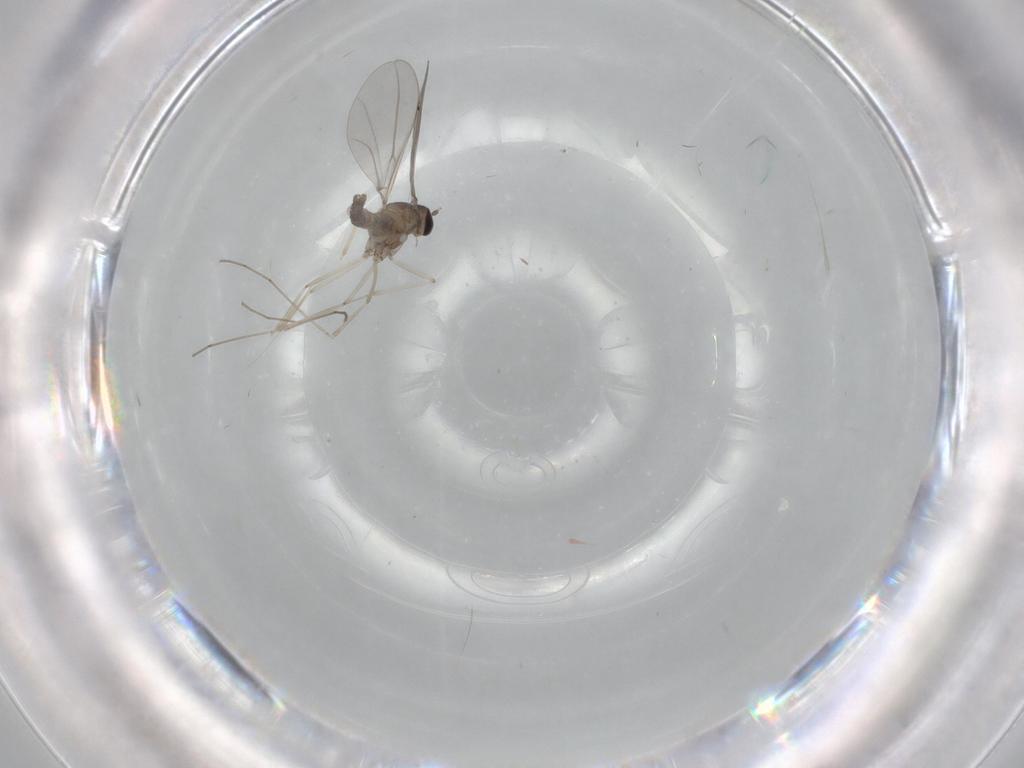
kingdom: Animalia
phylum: Arthropoda
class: Insecta
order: Diptera
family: Cecidomyiidae
